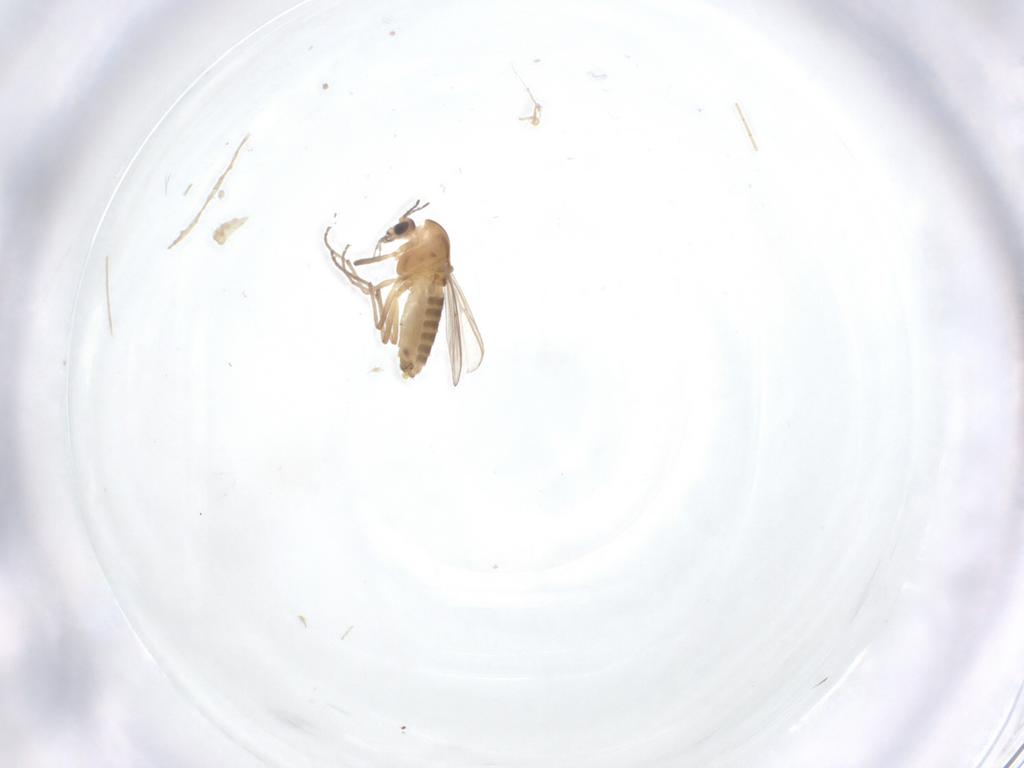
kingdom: Animalia
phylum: Arthropoda
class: Insecta
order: Diptera
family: Chironomidae
